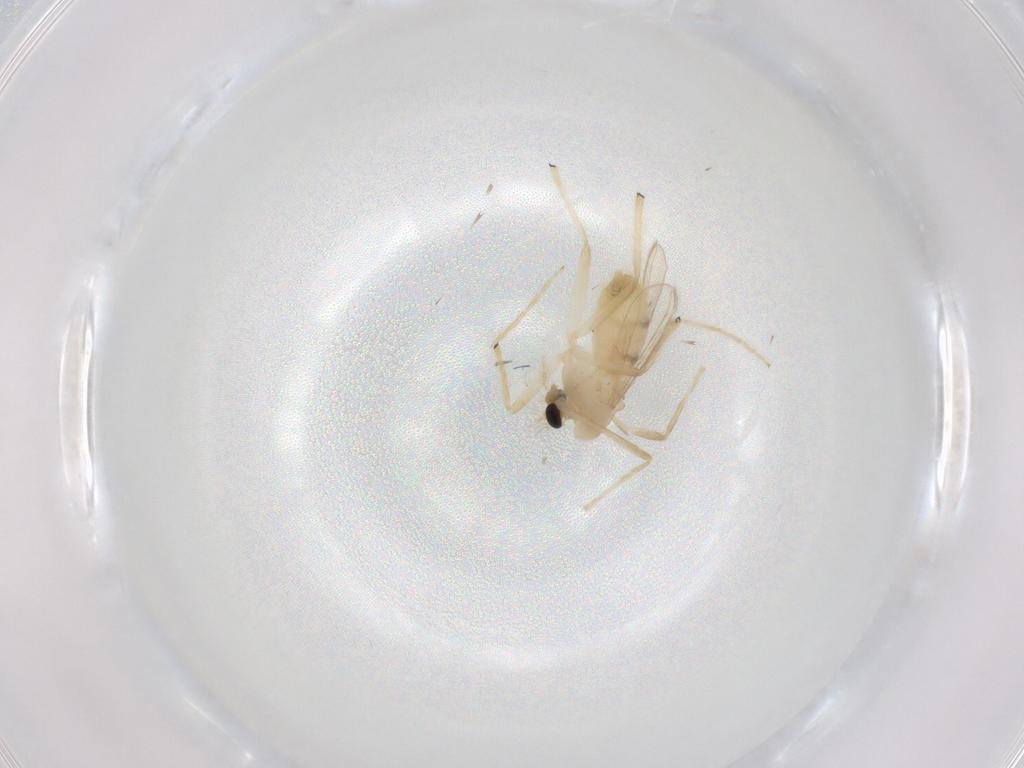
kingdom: Animalia
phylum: Arthropoda
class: Insecta
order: Diptera
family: Chironomidae
